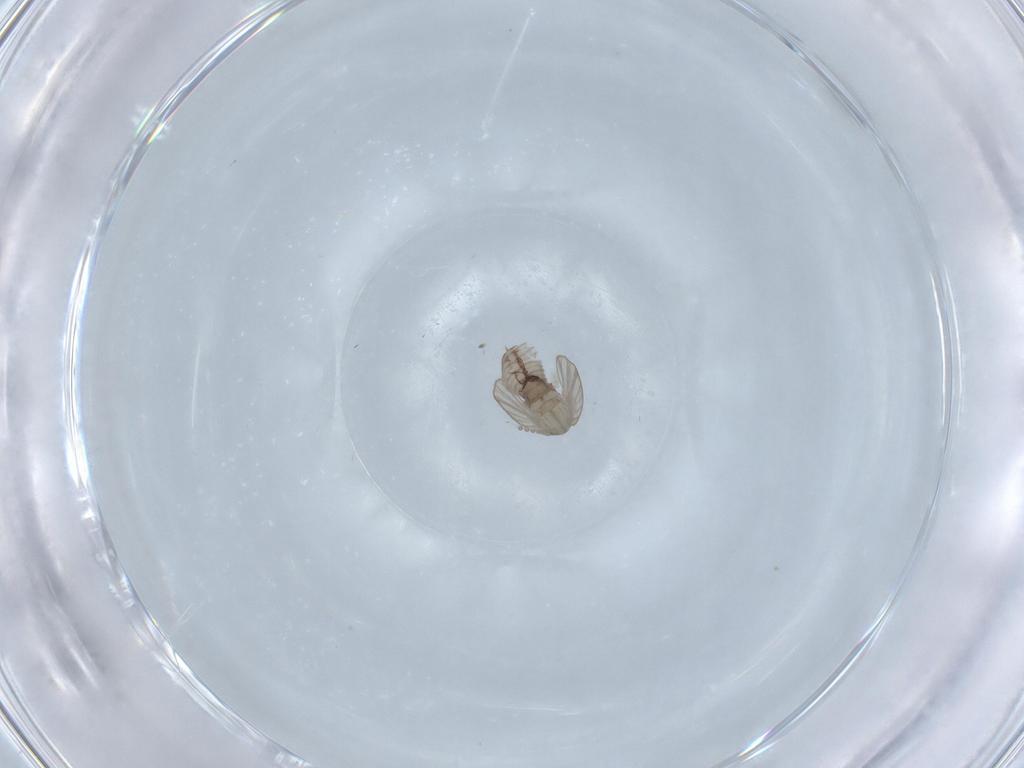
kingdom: Animalia
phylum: Arthropoda
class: Insecta
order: Diptera
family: Psychodidae
